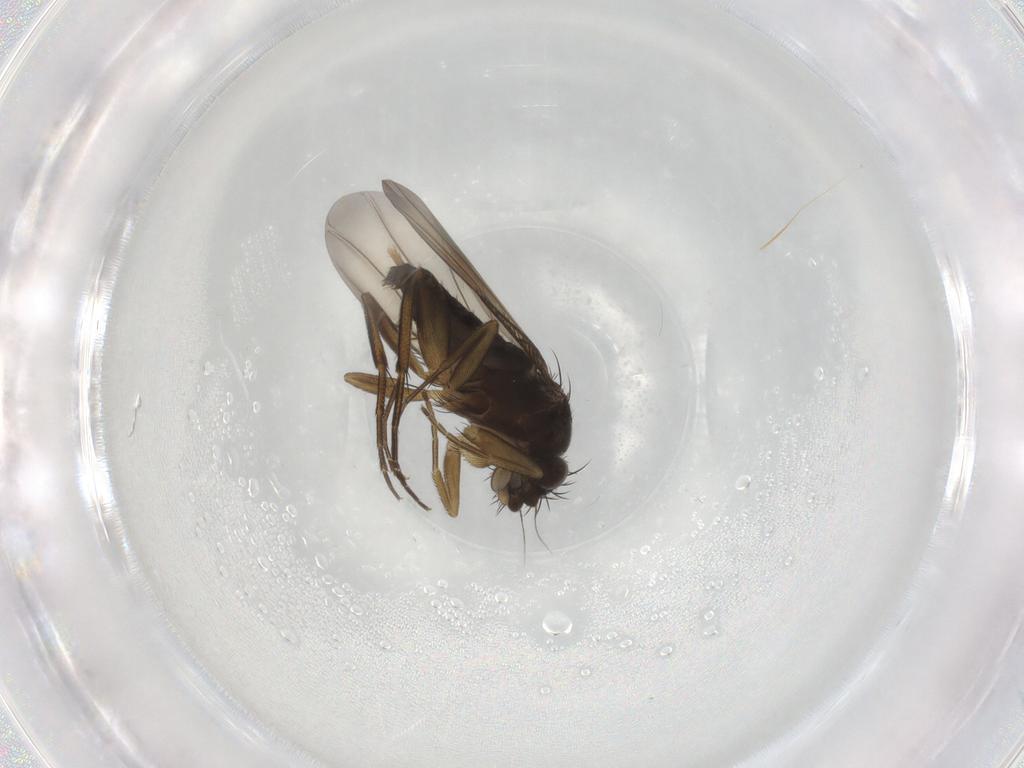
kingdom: Animalia
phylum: Arthropoda
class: Insecta
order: Diptera
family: Phoridae
